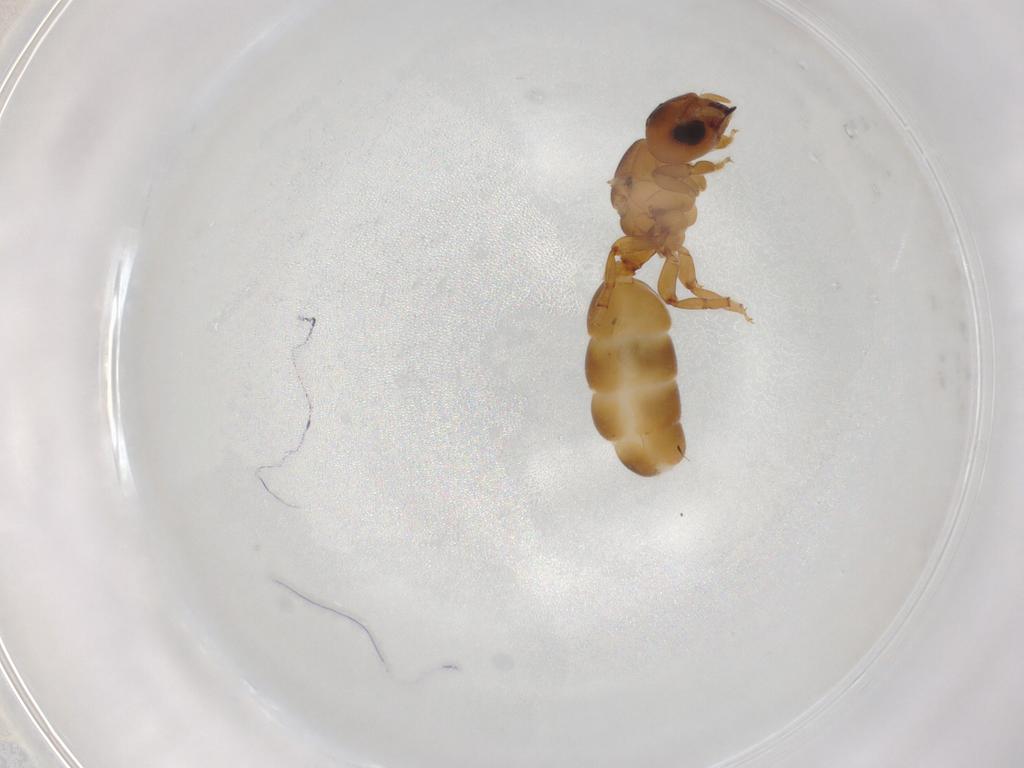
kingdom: Animalia
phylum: Arthropoda
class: Insecta
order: Hymenoptera
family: Formicidae
